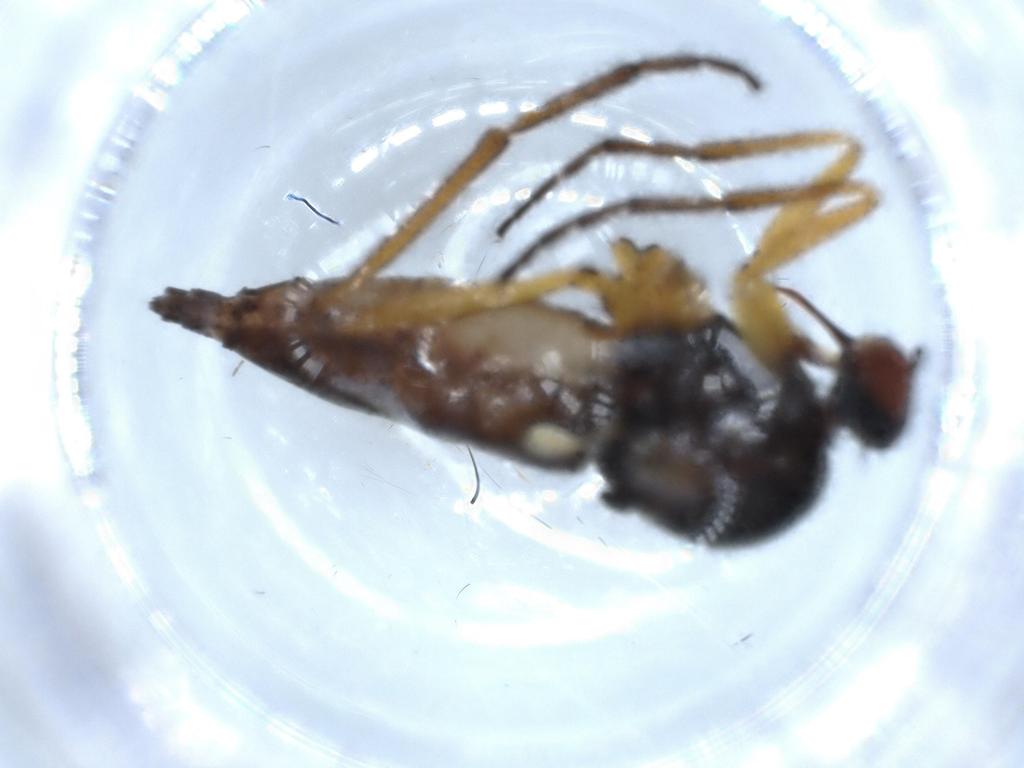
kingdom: Animalia
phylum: Arthropoda
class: Insecta
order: Diptera
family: Empididae
